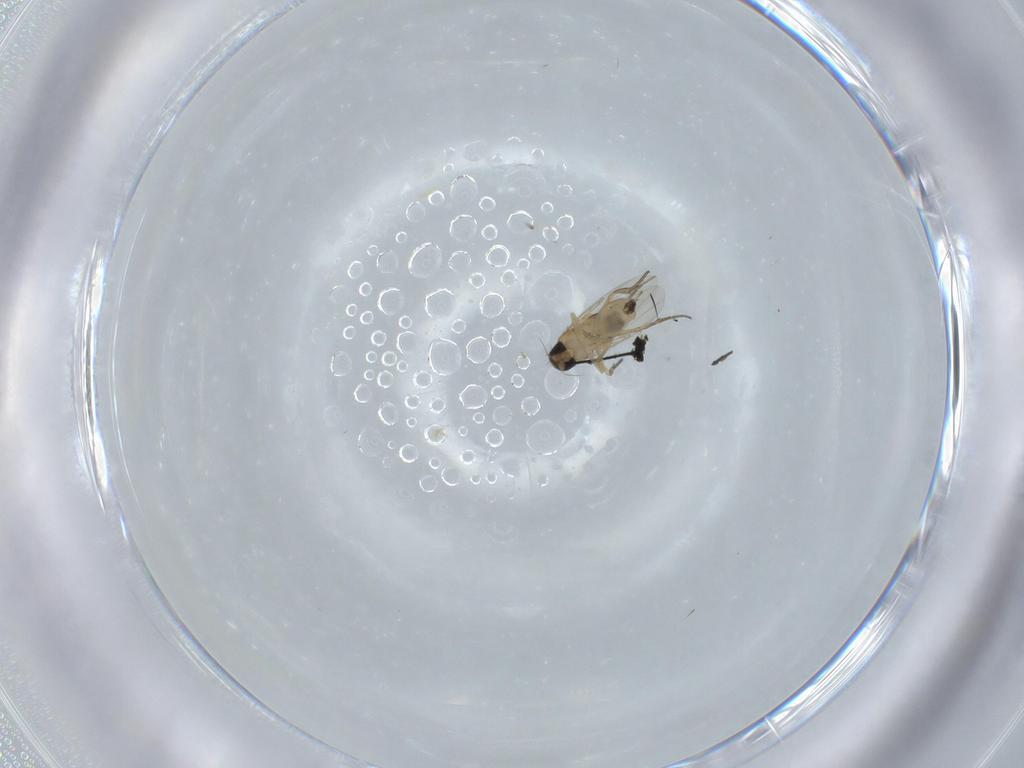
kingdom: Animalia
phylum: Arthropoda
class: Insecta
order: Diptera
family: Phoridae
